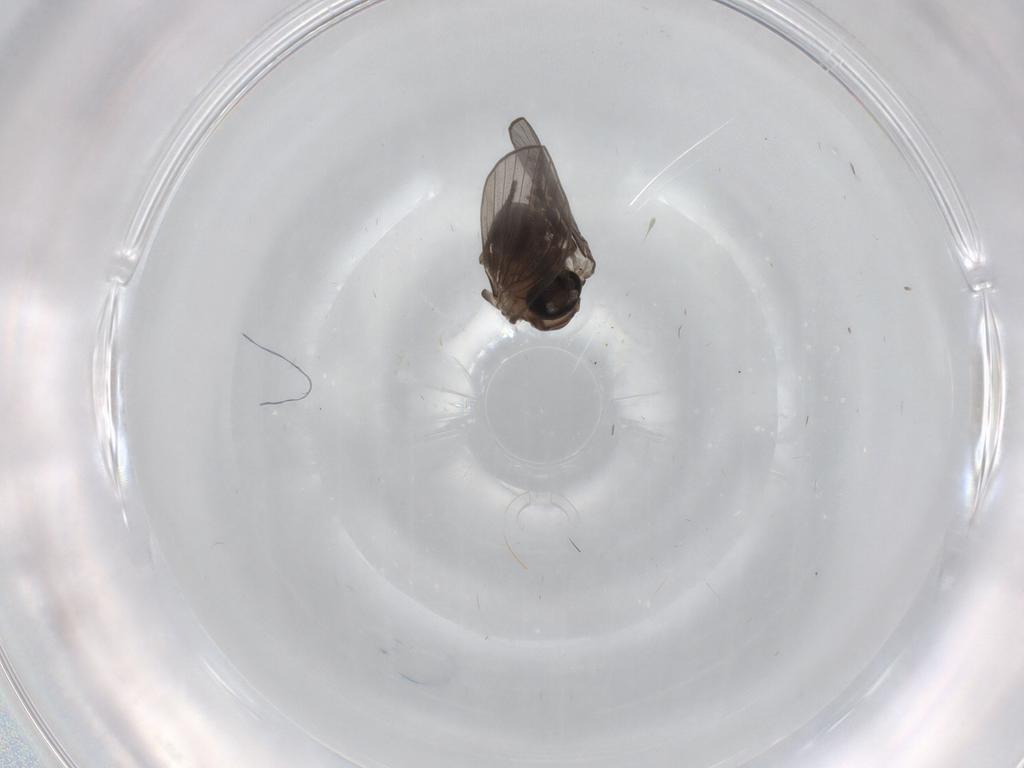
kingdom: Animalia
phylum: Arthropoda
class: Insecta
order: Diptera
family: Psychodidae
